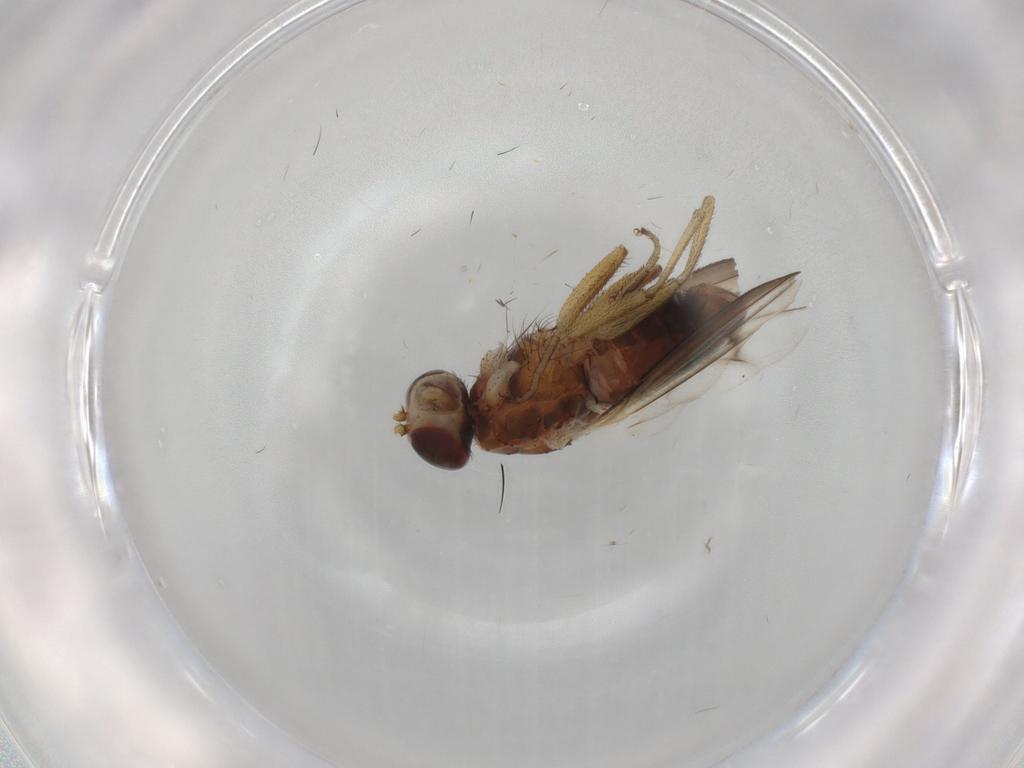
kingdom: Animalia
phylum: Arthropoda
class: Insecta
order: Diptera
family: Heleomyzidae
